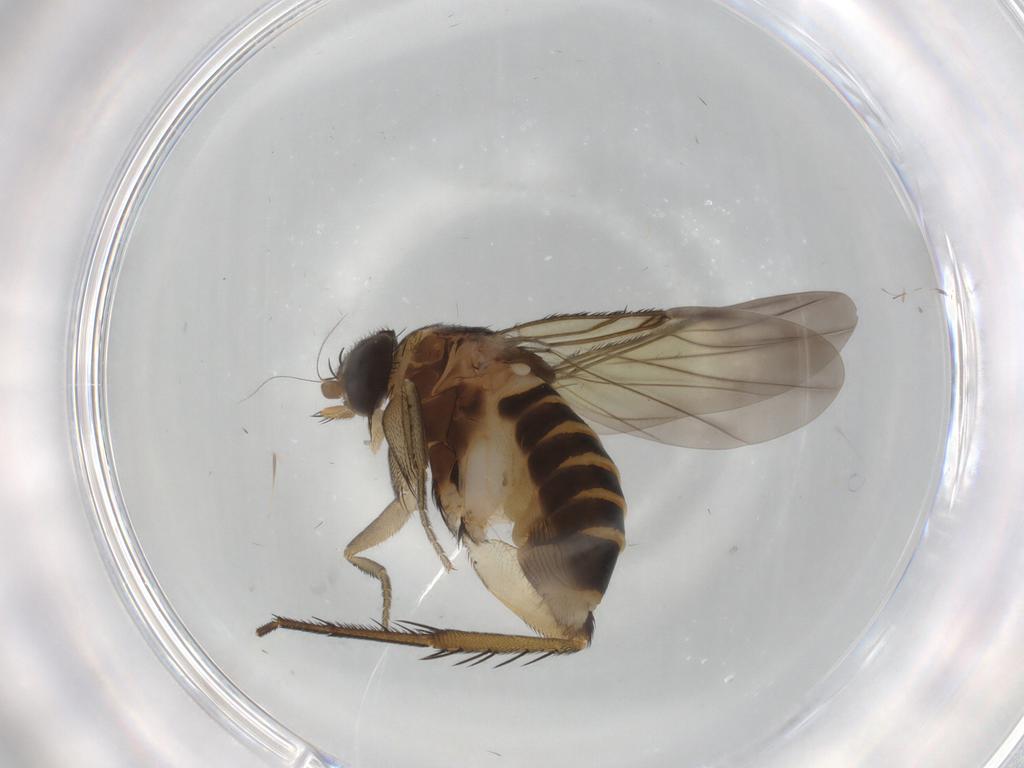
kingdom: Animalia
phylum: Arthropoda
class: Insecta
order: Diptera
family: Phoridae
